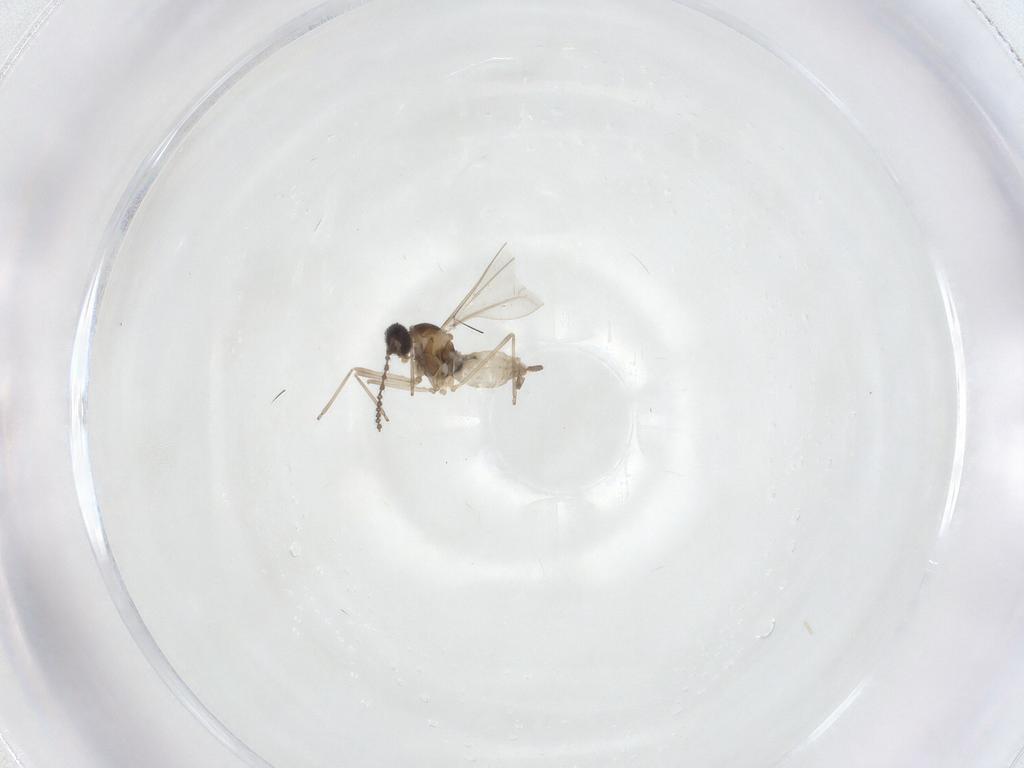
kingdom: Animalia
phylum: Arthropoda
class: Insecta
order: Diptera
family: Cecidomyiidae
